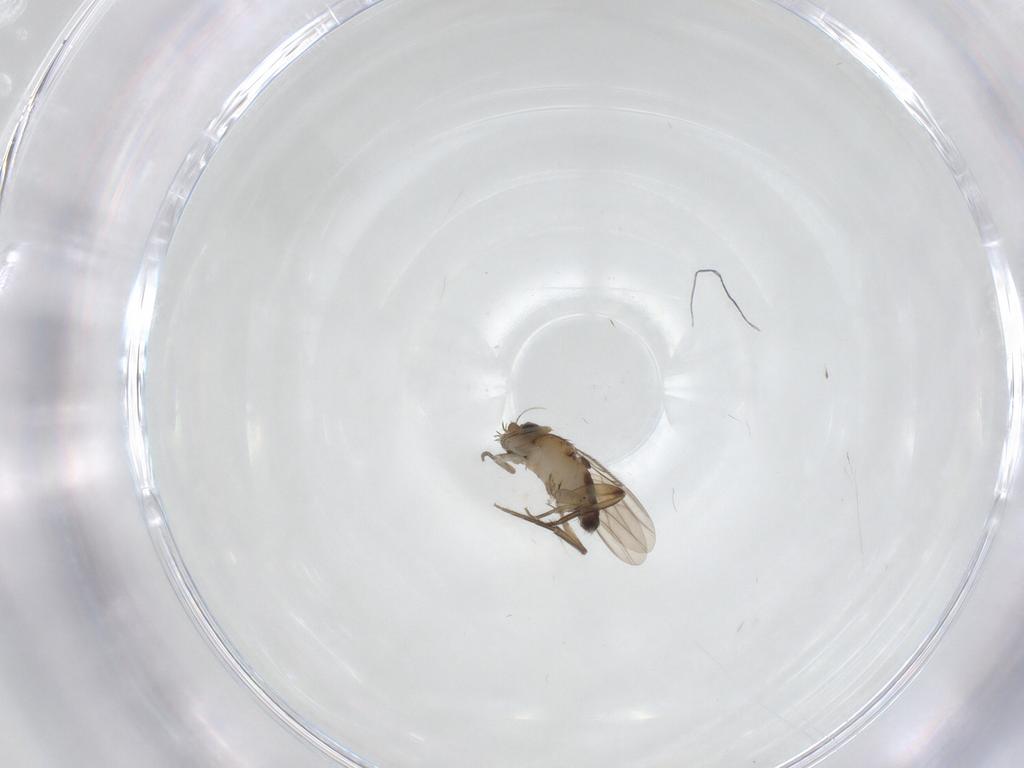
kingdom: Animalia
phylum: Arthropoda
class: Insecta
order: Diptera
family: Phoridae
